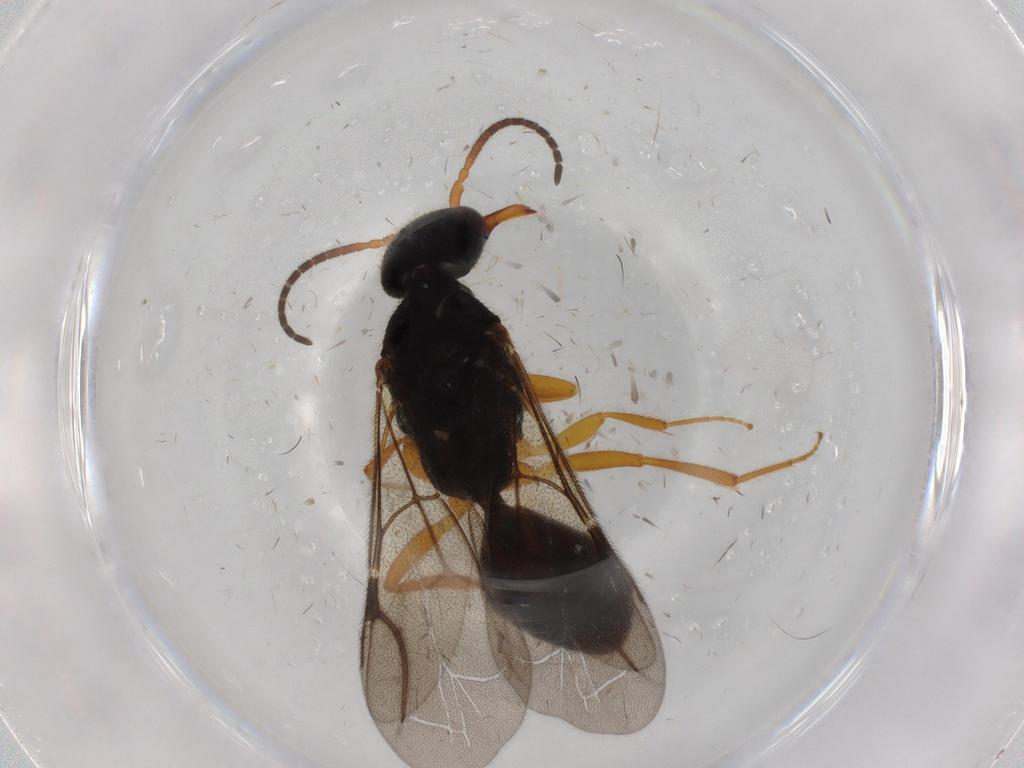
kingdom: Animalia
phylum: Arthropoda
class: Insecta
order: Hymenoptera
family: Bethylidae
